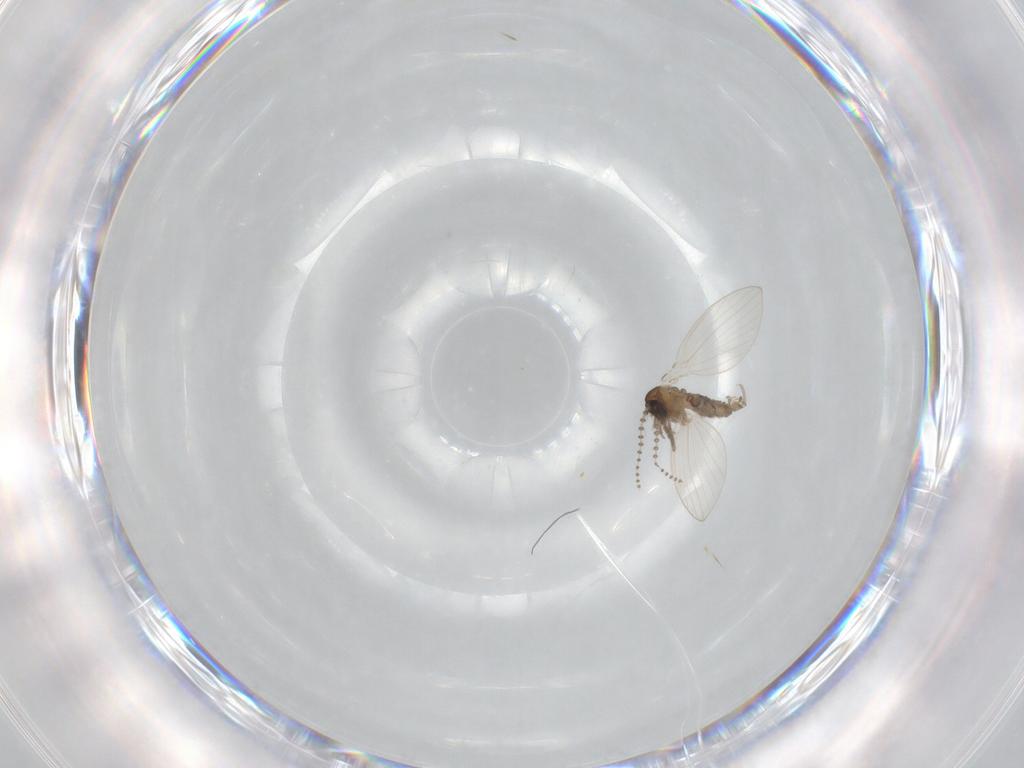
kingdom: Animalia
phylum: Arthropoda
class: Insecta
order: Diptera
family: Psychodidae
